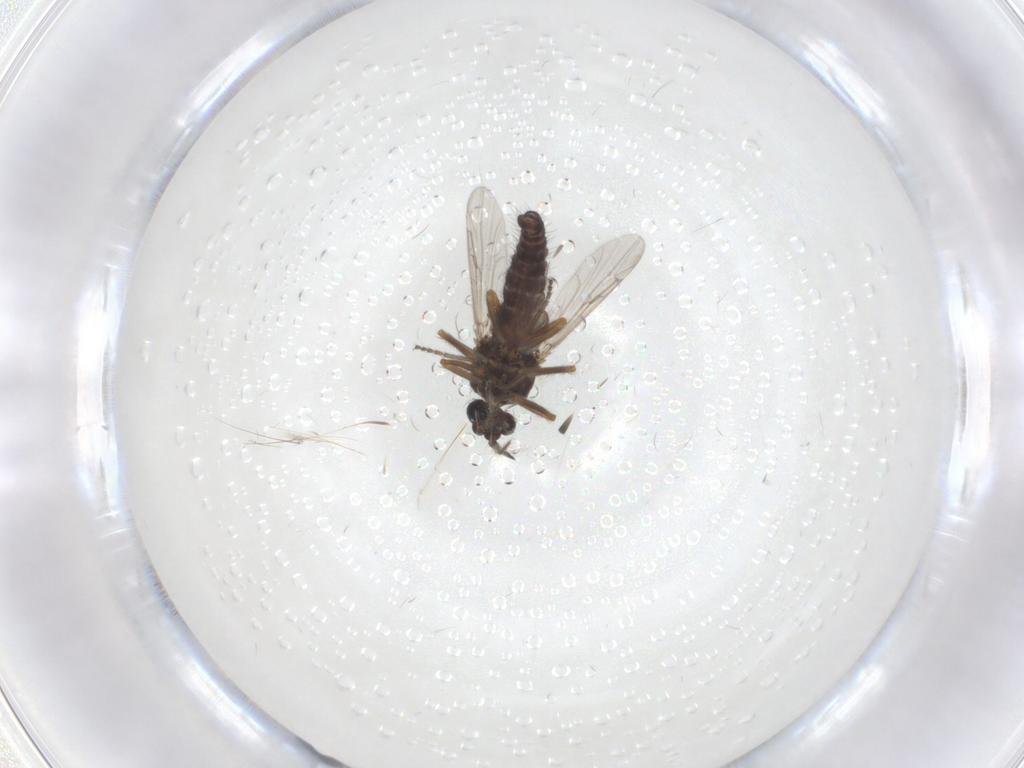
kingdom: Animalia
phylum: Arthropoda
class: Insecta
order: Diptera
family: Ceratopogonidae
